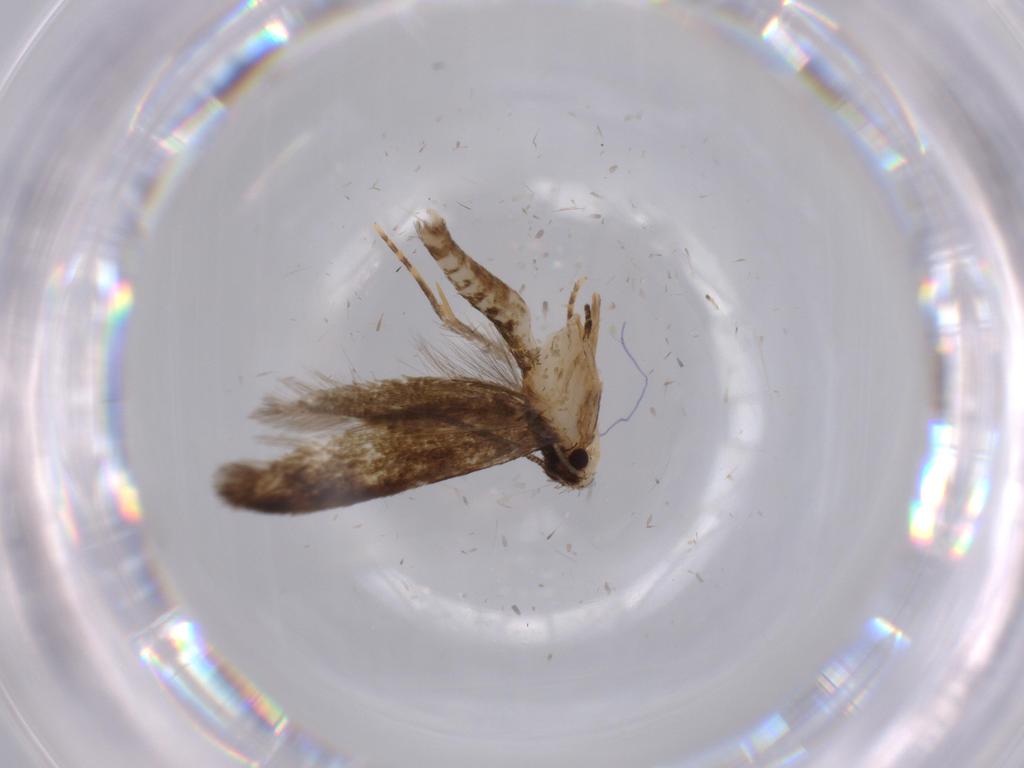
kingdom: Animalia
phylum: Arthropoda
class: Insecta
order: Lepidoptera
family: Tineidae
